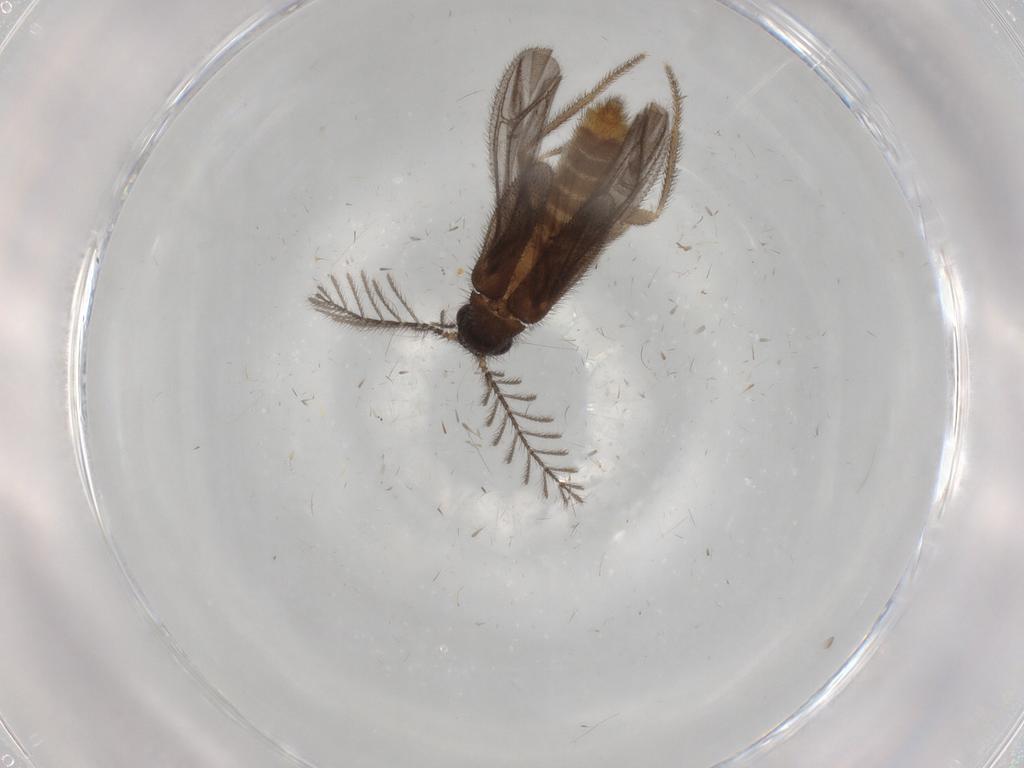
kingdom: Animalia
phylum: Arthropoda
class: Insecta
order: Coleoptera
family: Phengodidae
